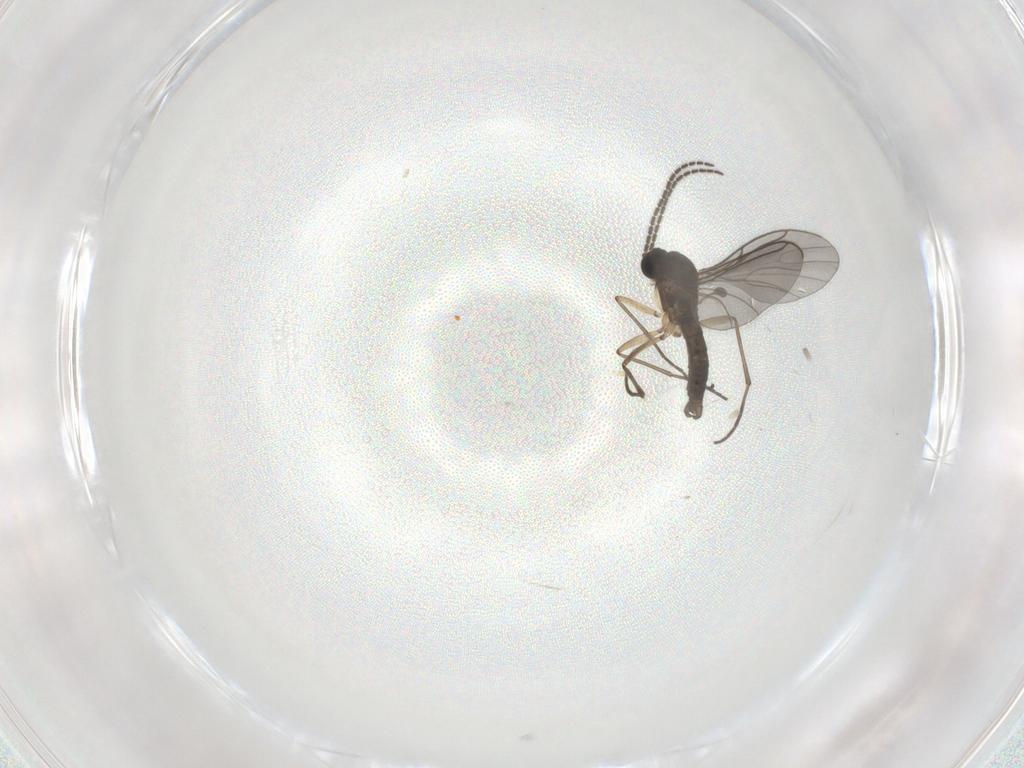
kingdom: Animalia
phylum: Arthropoda
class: Insecta
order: Diptera
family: Sciaridae
